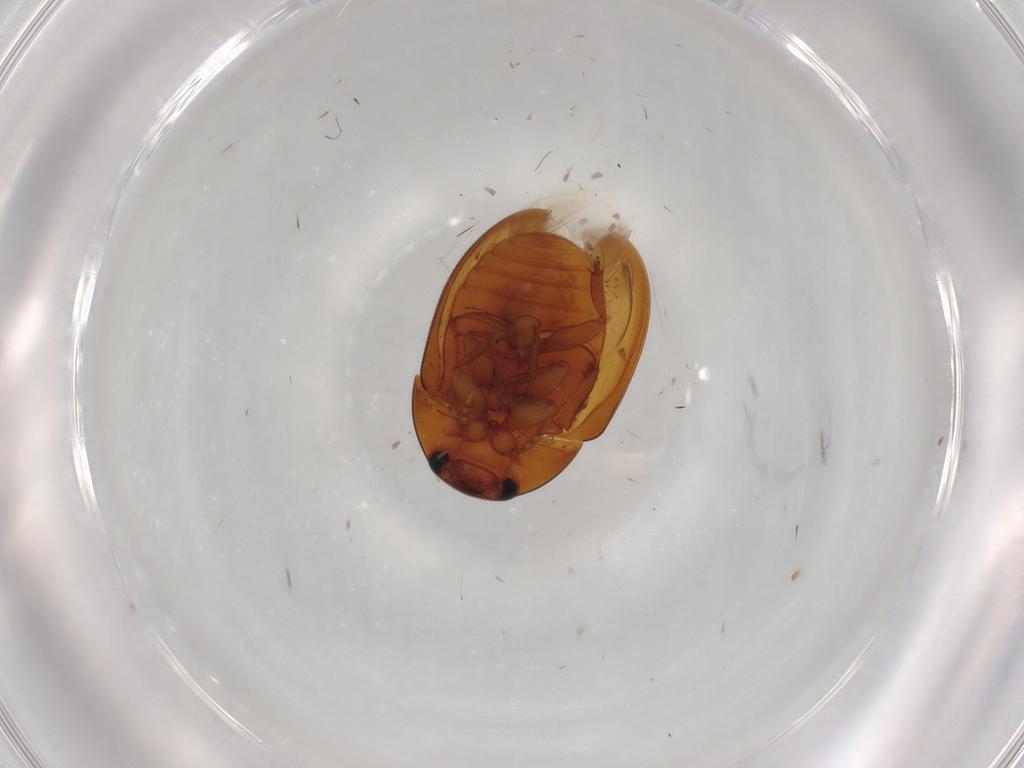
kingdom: Animalia
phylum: Arthropoda
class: Insecta
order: Coleoptera
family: Phalacridae
